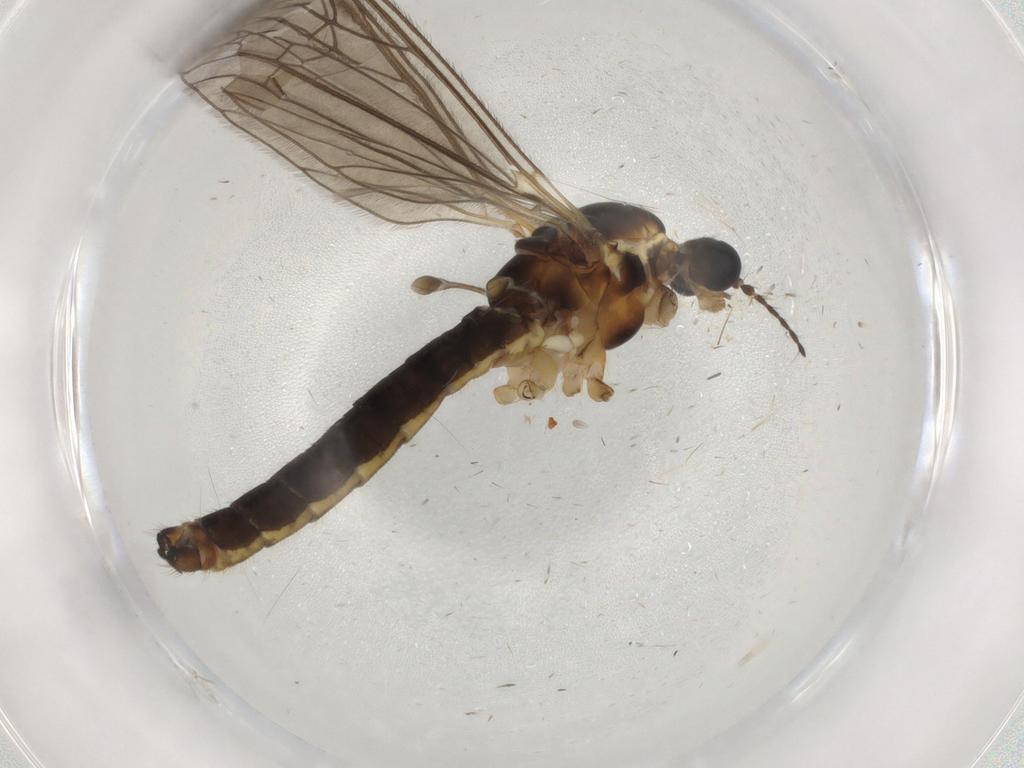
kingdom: Animalia
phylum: Arthropoda
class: Insecta
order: Diptera
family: Limoniidae
